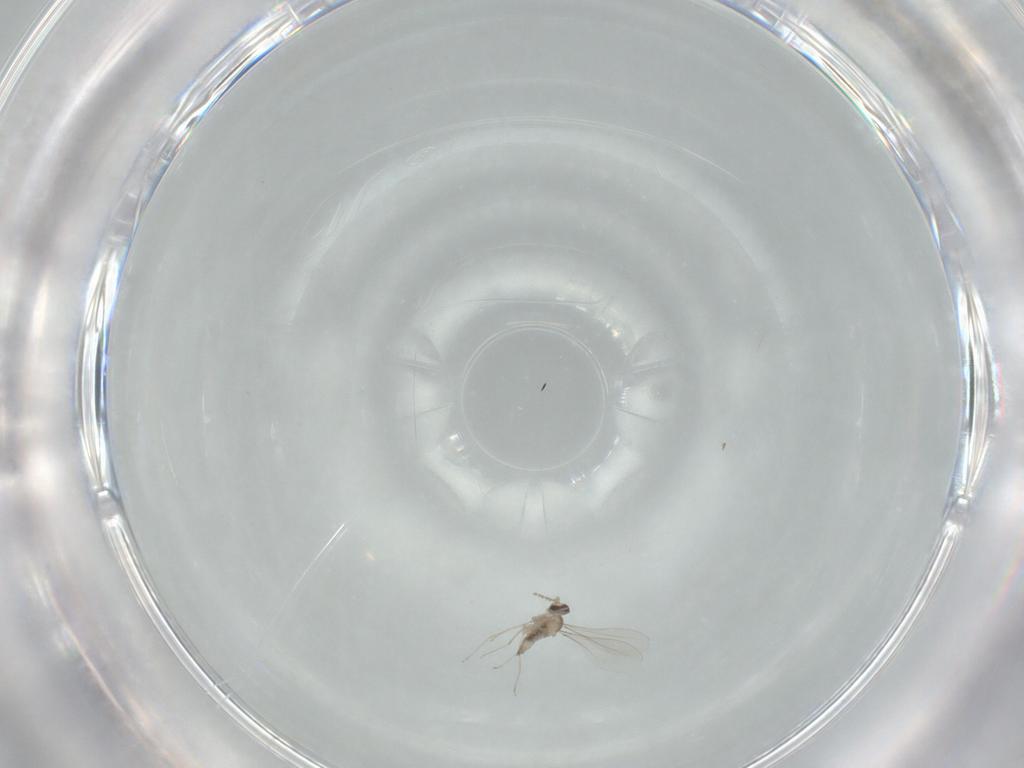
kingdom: Animalia
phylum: Arthropoda
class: Insecta
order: Diptera
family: Cecidomyiidae
